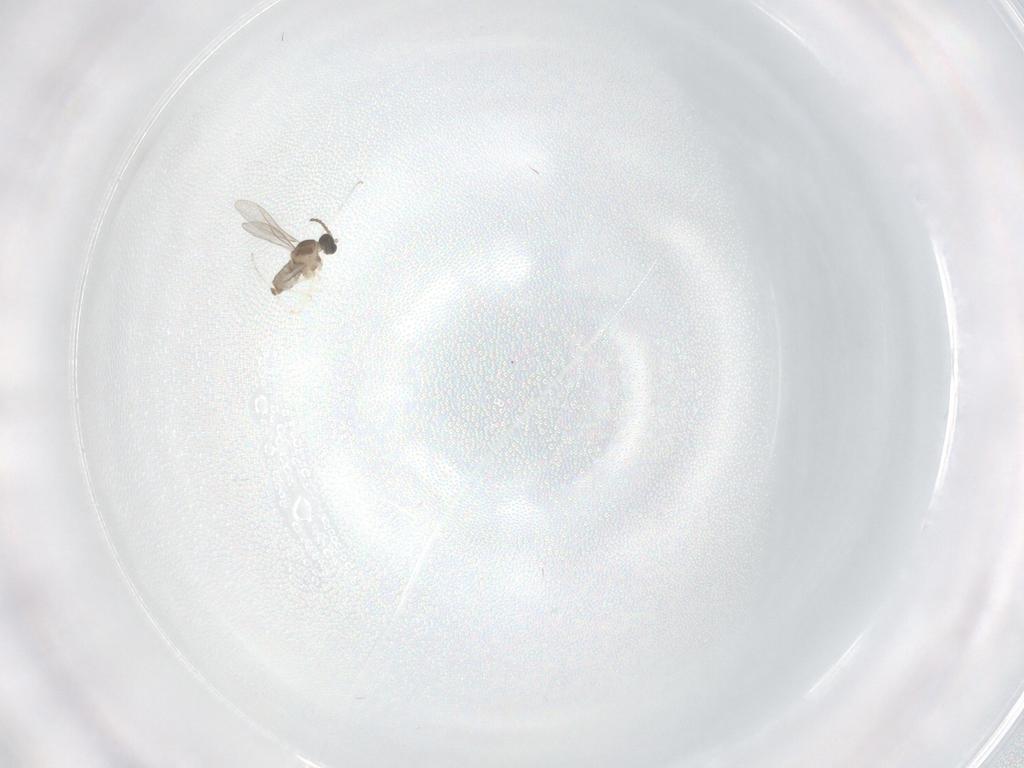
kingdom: Animalia
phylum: Arthropoda
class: Insecta
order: Diptera
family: Cecidomyiidae
